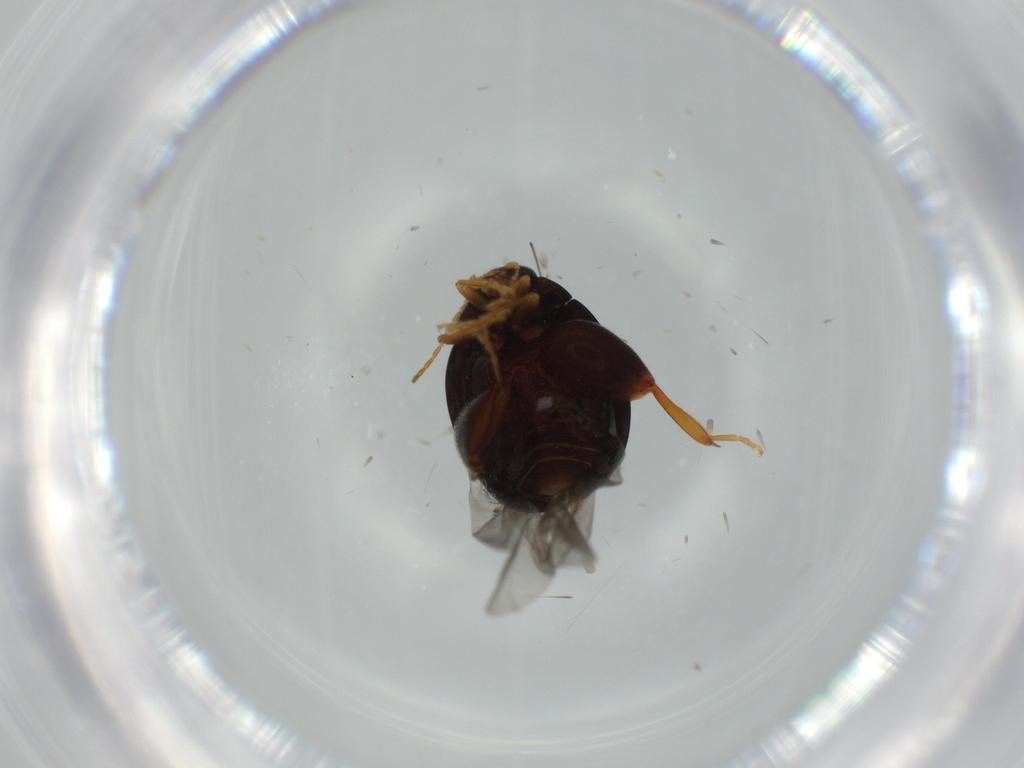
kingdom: Animalia
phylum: Arthropoda
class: Insecta
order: Coleoptera
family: Chrysomelidae
